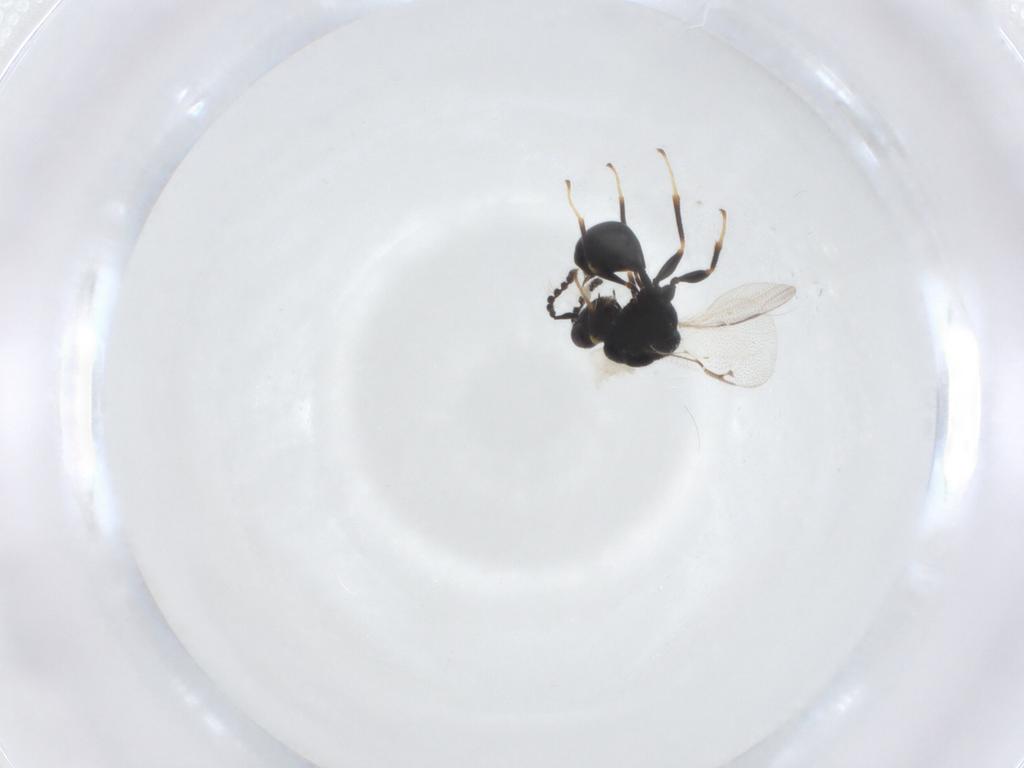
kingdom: Animalia
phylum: Arthropoda
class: Insecta
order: Hymenoptera
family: Eurytomidae
